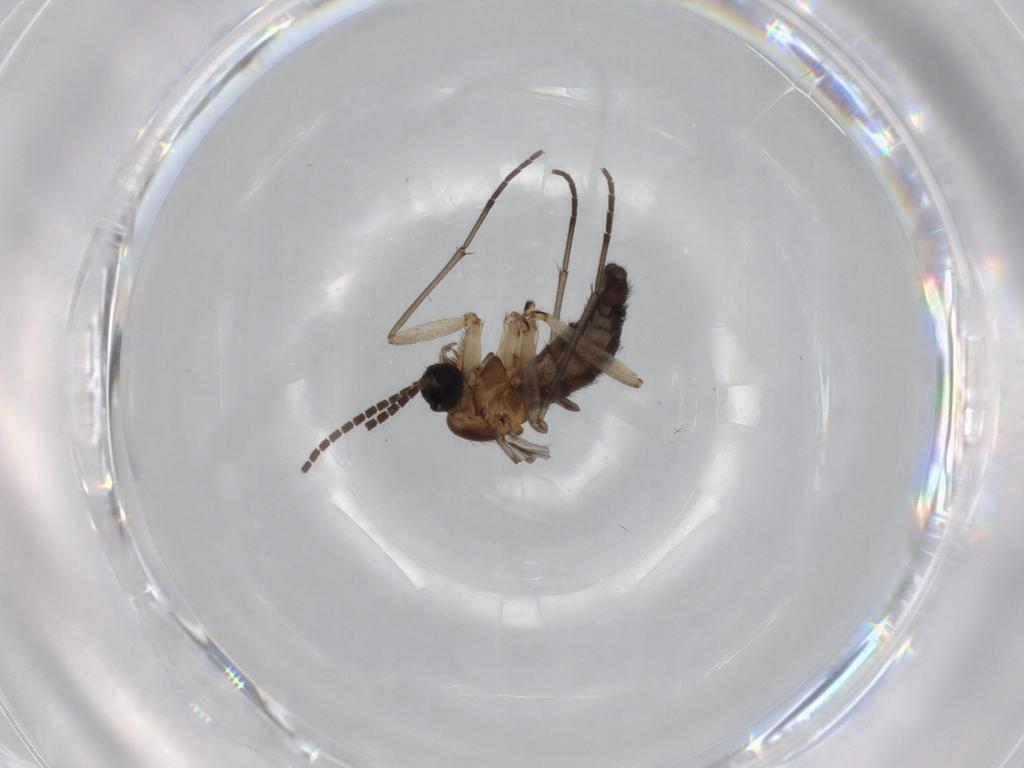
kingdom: Animalia
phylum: Arthropoda
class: Insecta
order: Diptera
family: Sciaridae
